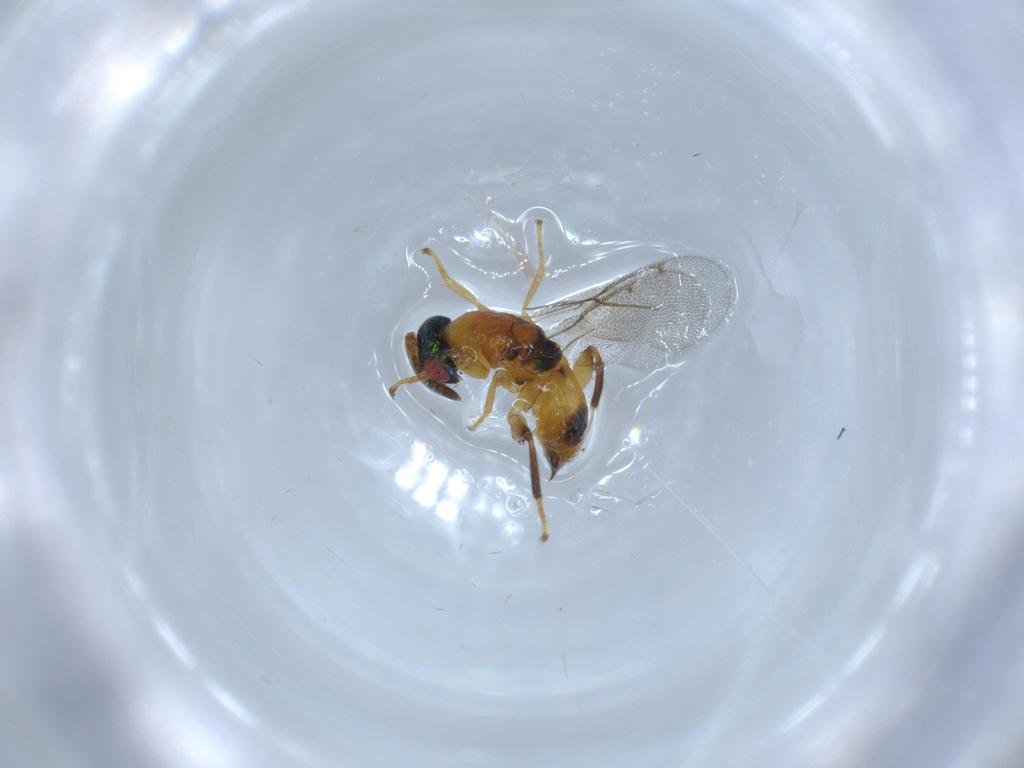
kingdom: Animalia
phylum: Arthropoda
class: Insecta
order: Hymenoptera
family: Torymidae
